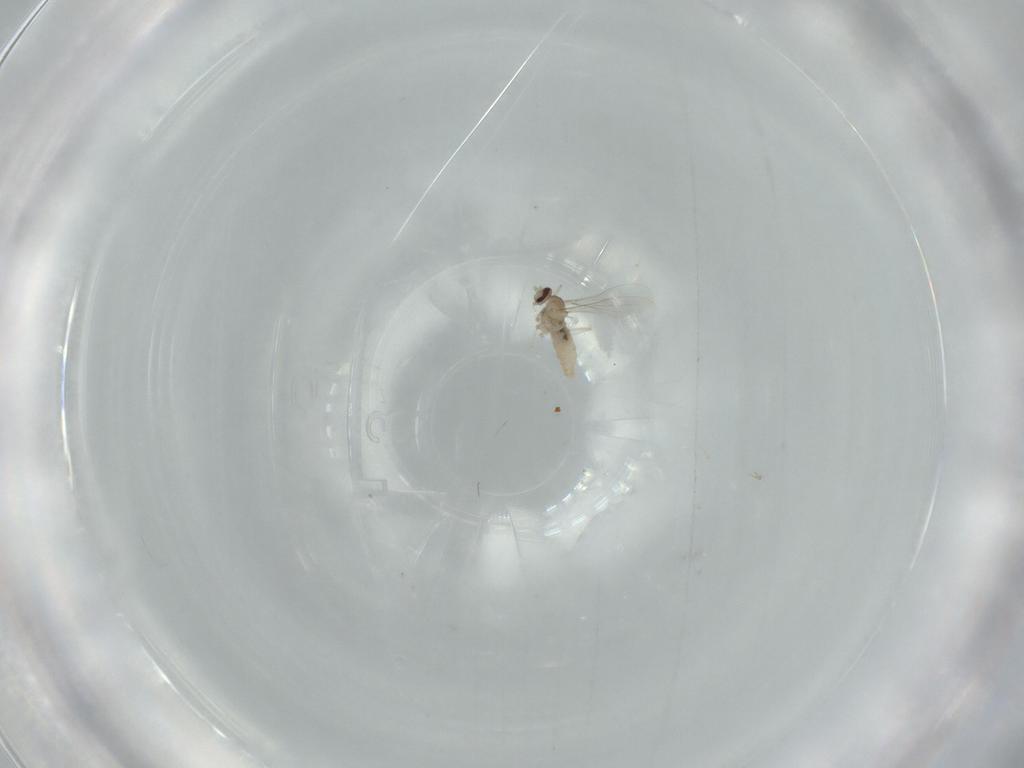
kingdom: Animalia
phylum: Arthropoda
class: Insecta
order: Diptera
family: Cecidomyiidae
